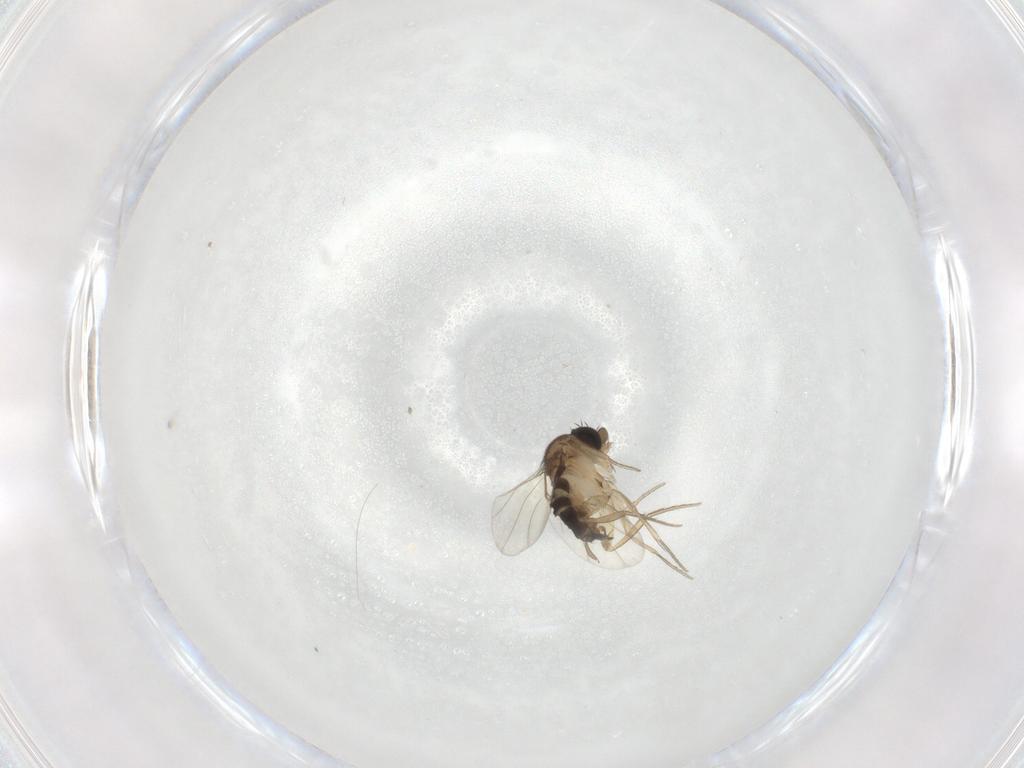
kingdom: Animalia
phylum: Arthropoda
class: Insecta
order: Diptera
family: Phoridae
